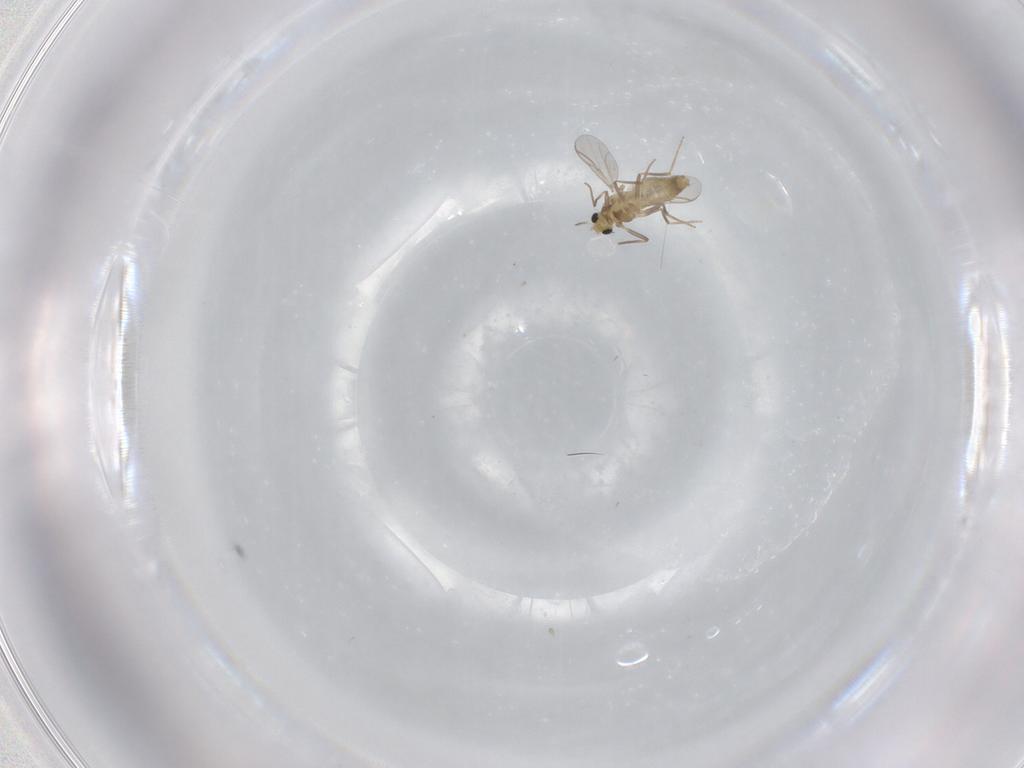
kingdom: Animalia
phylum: Arthropoda
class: Insecta
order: Diptera
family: Chironomidae
